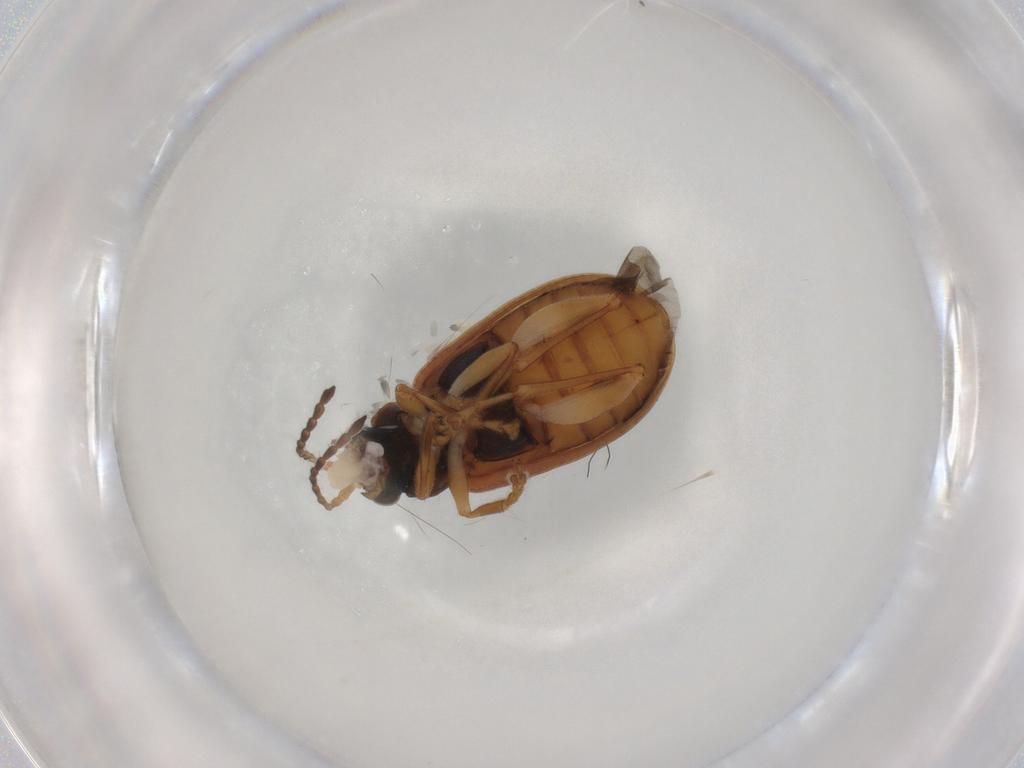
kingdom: Animalia
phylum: Arthropoda
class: Insecta
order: Coleoptera
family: Chrysomelidae
